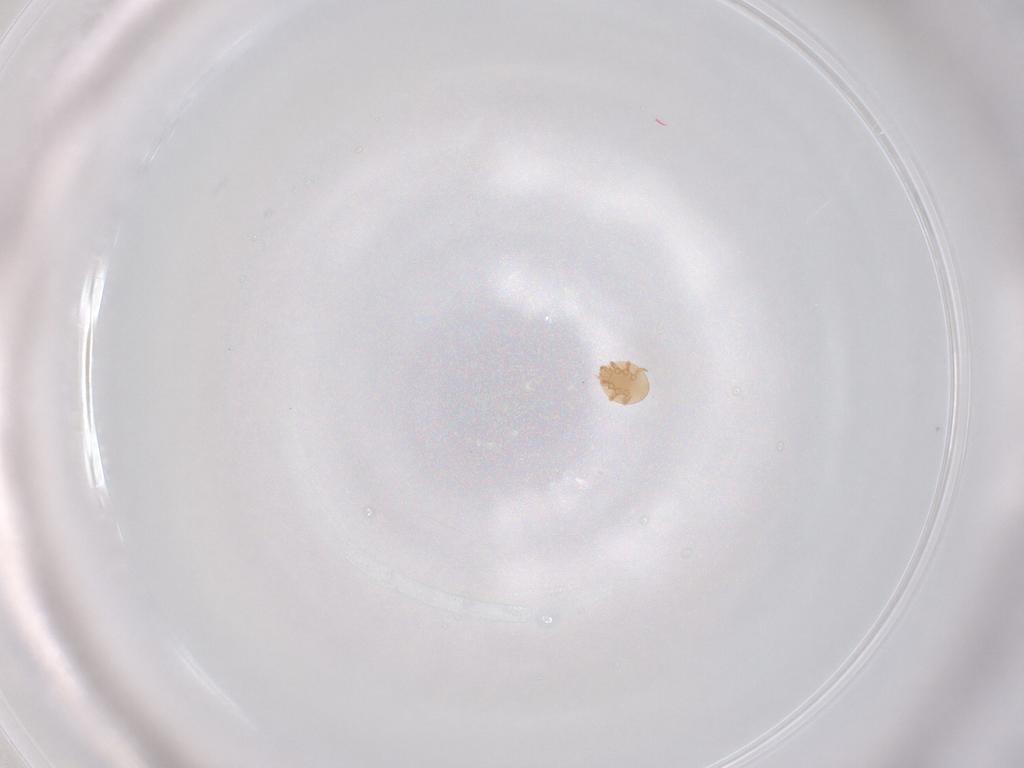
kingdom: Animalia
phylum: Arthropoda
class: Arachnida
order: Mesostigmata
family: Trematuridae
